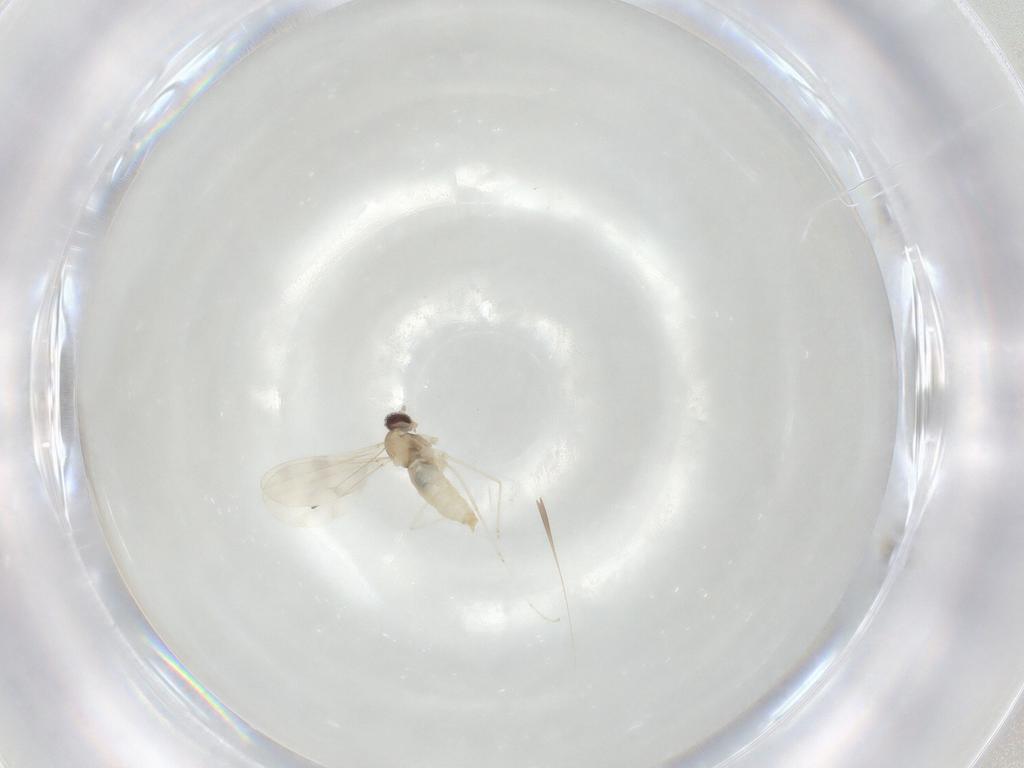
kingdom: Animalia
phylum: Arthropoda
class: Insecta
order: Diptera
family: Cecidomyiidae
